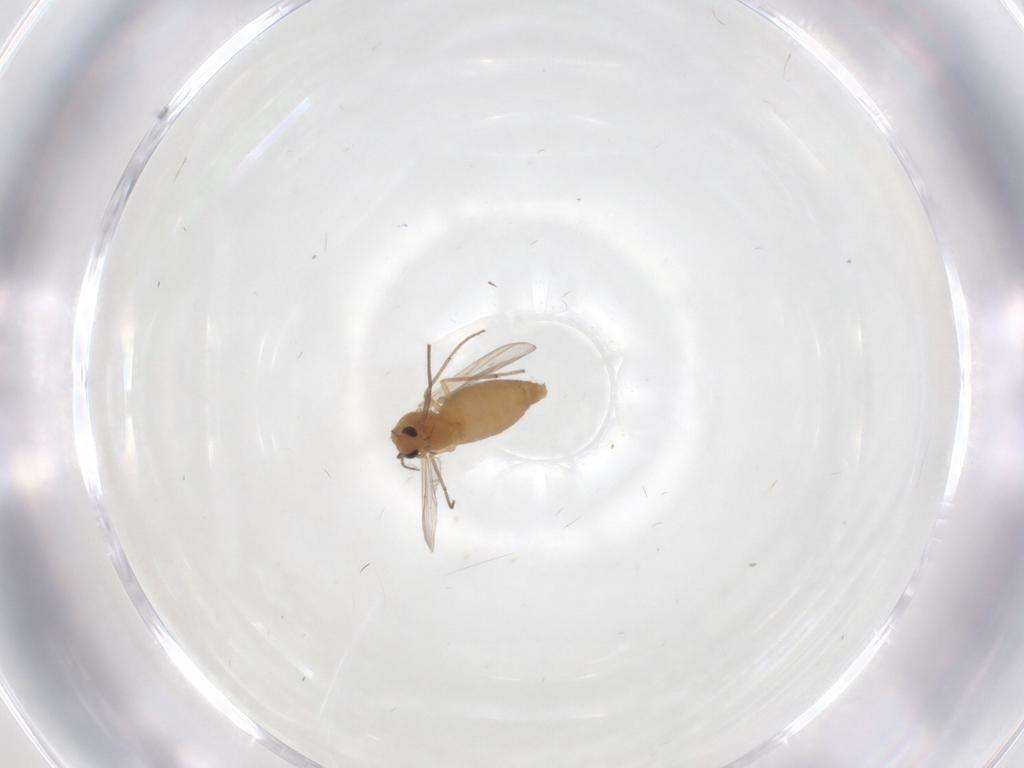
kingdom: Animalia
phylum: Arthropoda
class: Insecta
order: Diptera
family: Chironomidae
